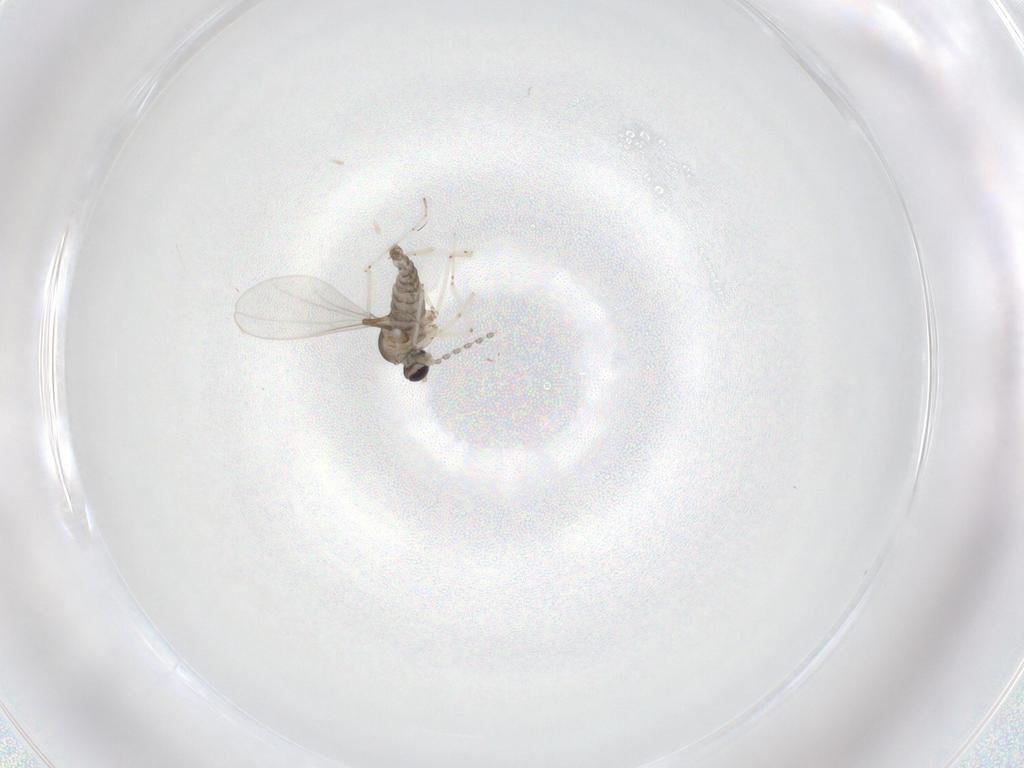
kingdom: Animalia
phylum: Arthropoda
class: Insecta
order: Diptera
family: Cecidomyiidae
